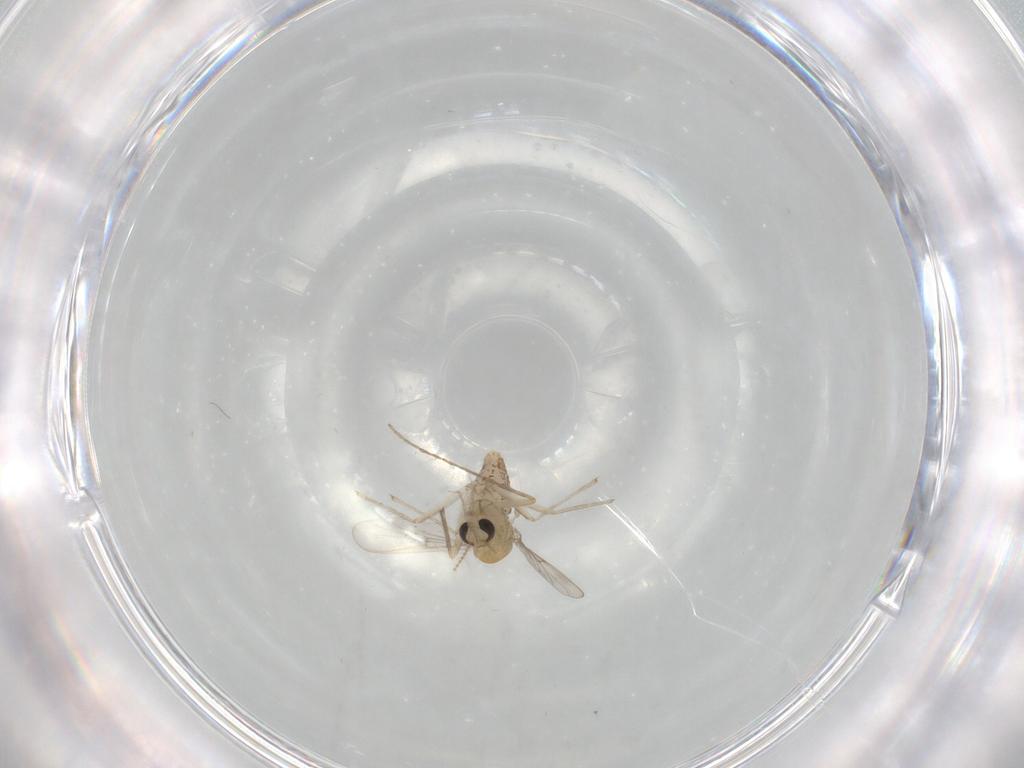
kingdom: Animalia
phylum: Arthropoda
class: Insecta
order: Diptera
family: Chironomidae
